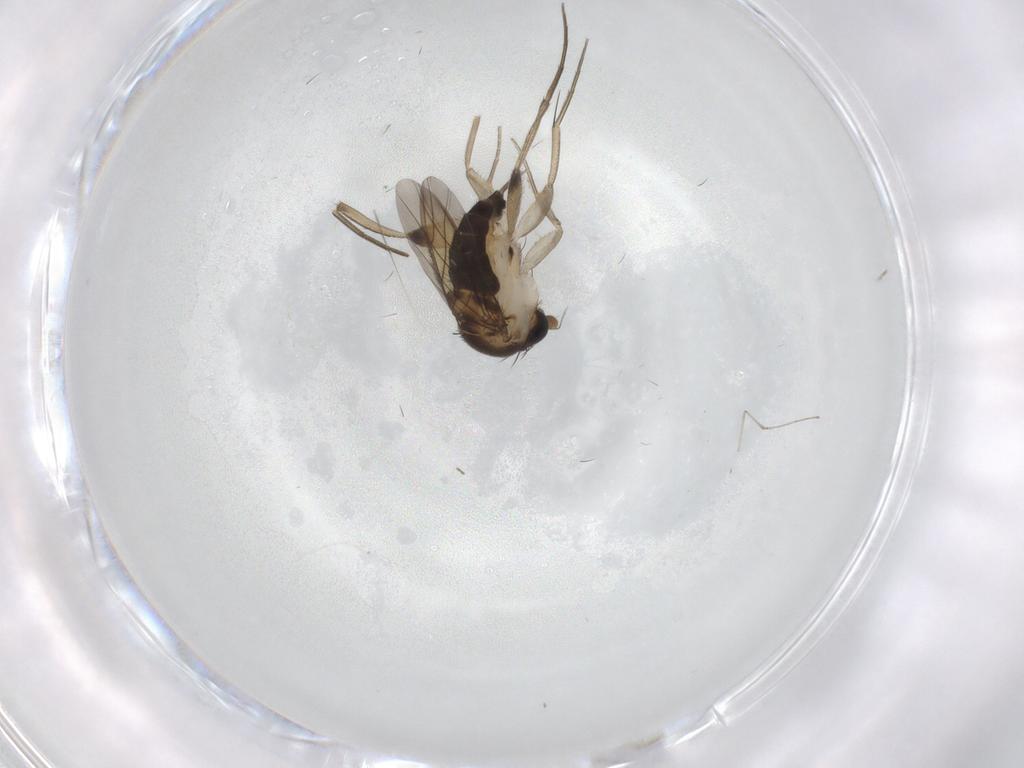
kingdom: Animalia
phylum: Arthropoda
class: Insecta
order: Diptera
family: Phoridae
